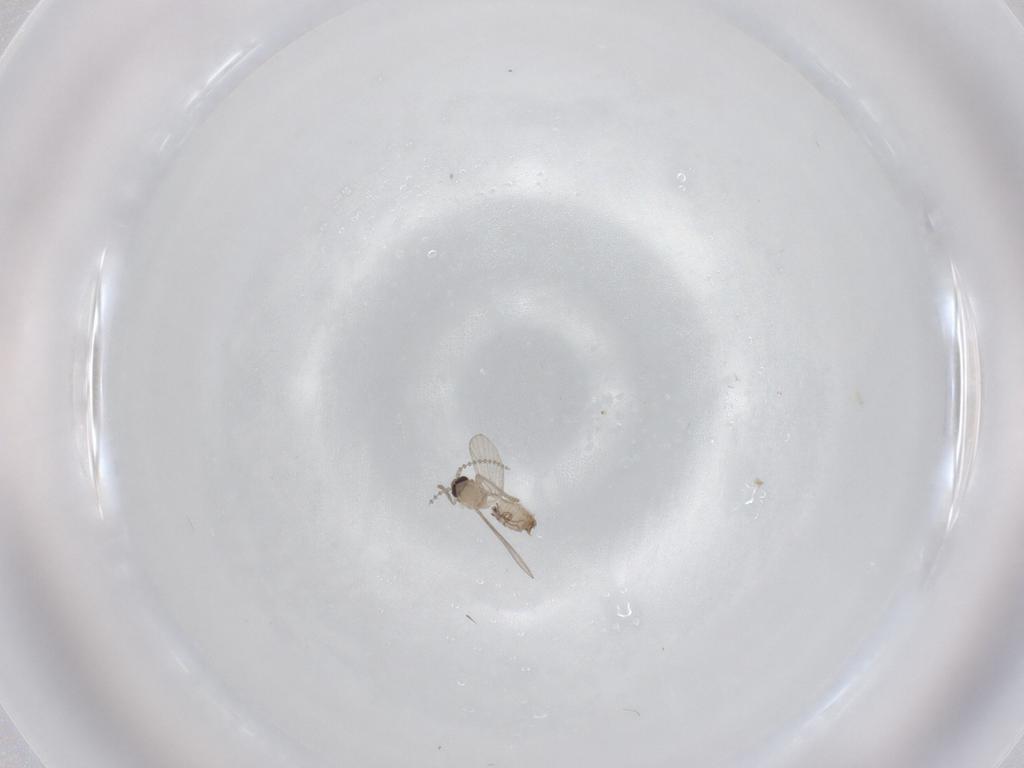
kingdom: Animalia
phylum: Arthropoda
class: Insecta
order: Diptera
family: Psychodidae
